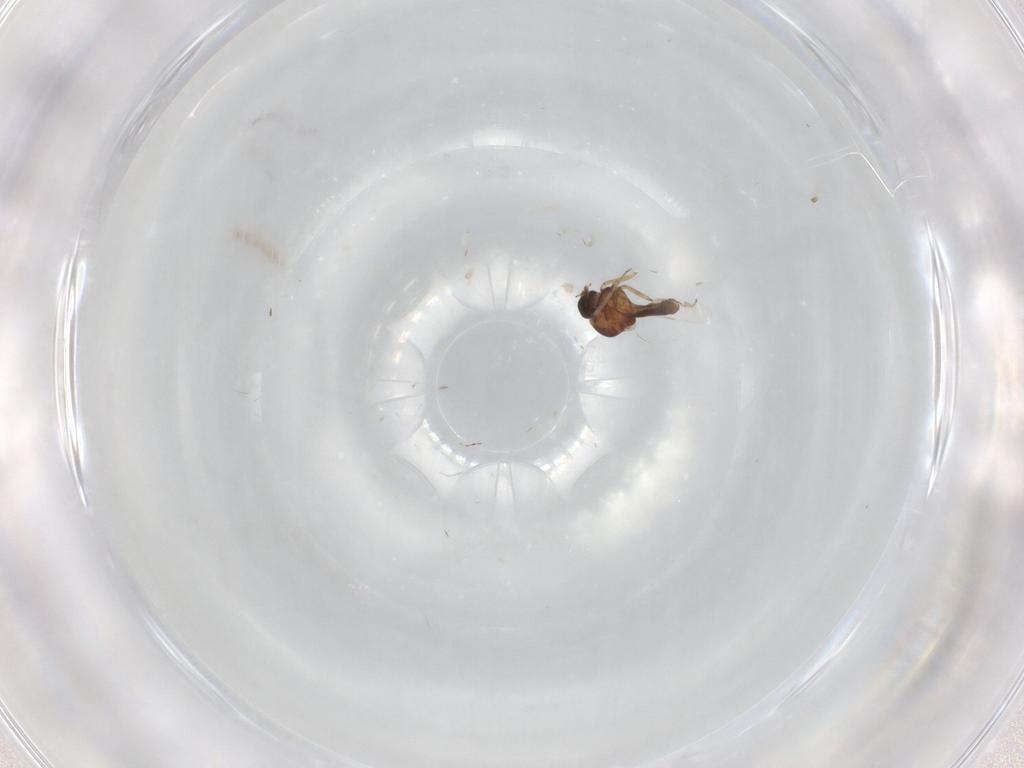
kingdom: Animalia
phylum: Arthropoda
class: Insecta
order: Diptera
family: Ceratopogonidae
